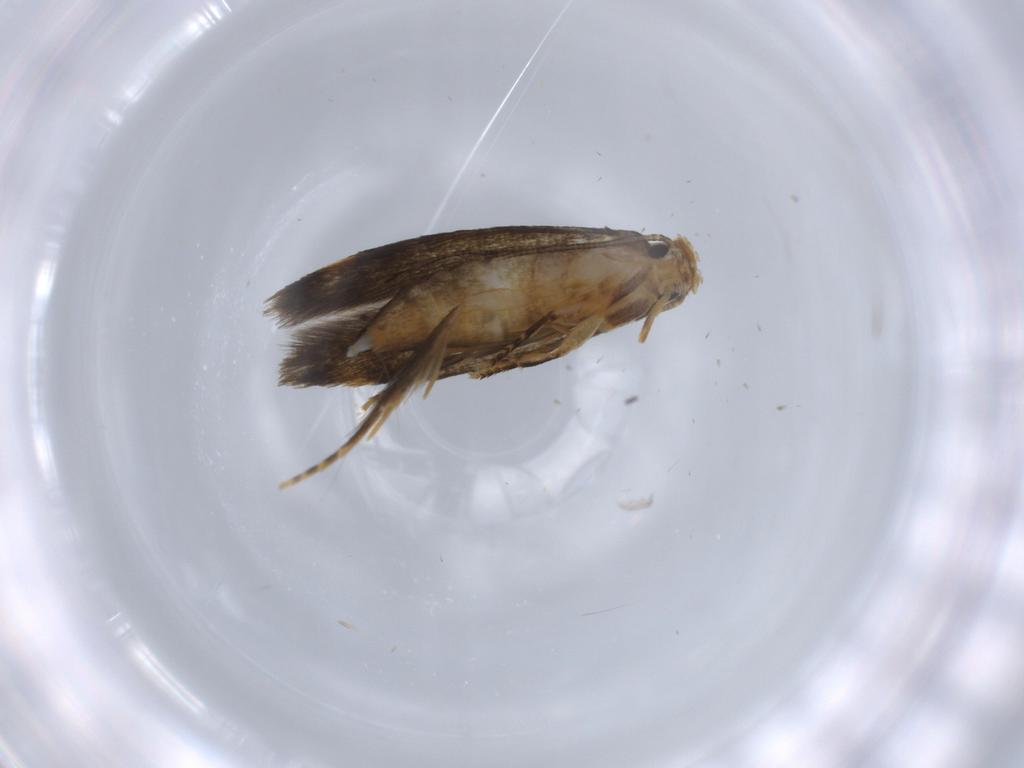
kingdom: Animalia
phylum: Arthropoda
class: Insecta
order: Lepidoptera
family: Tineidae
